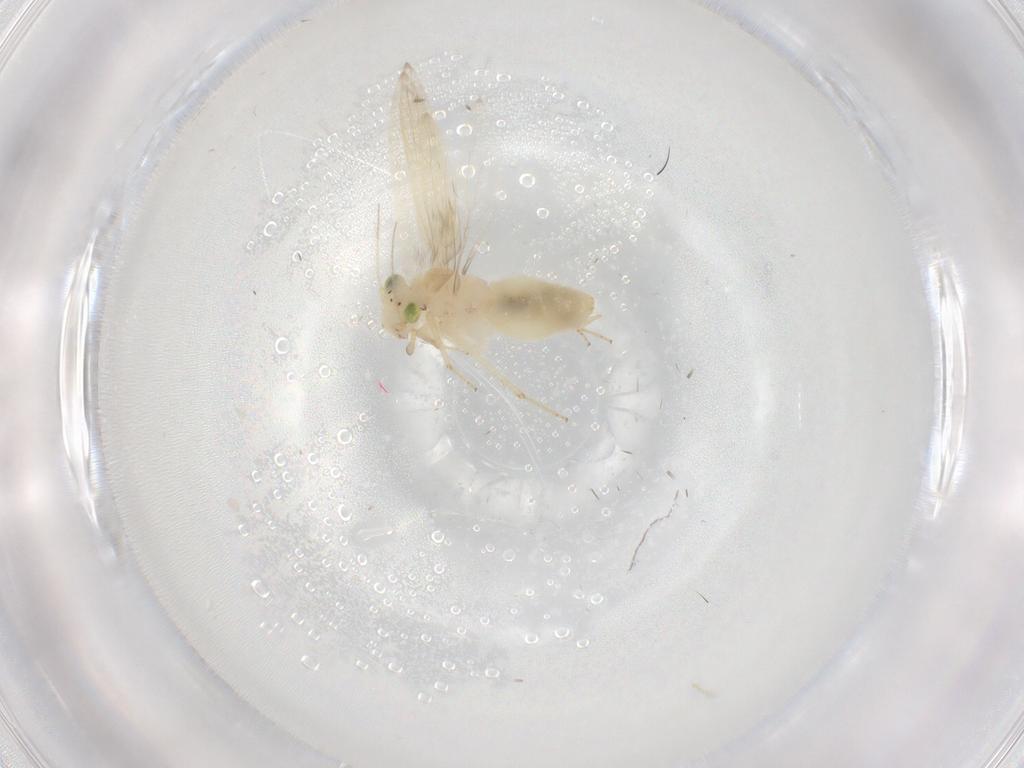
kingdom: Animalia
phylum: Arthropoda
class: Insecta
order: Psocodea
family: Lepidopsocidae
